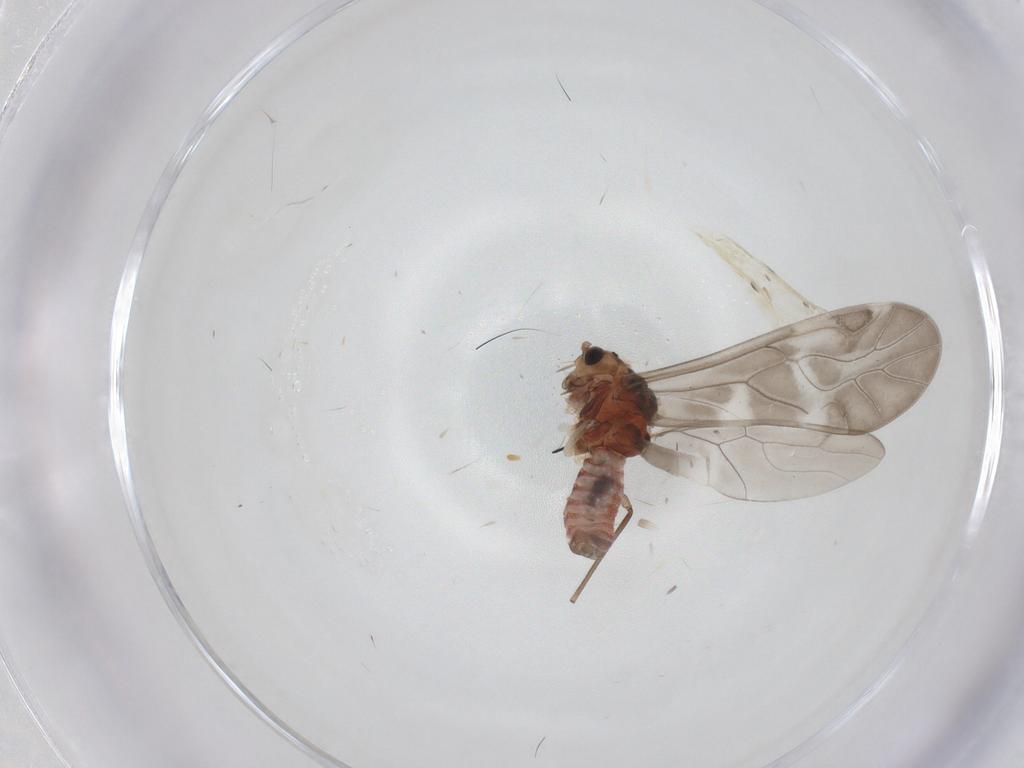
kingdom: Animalia
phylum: Arthropoda
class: Insecta
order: Psocodea
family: Caeciliusidae
